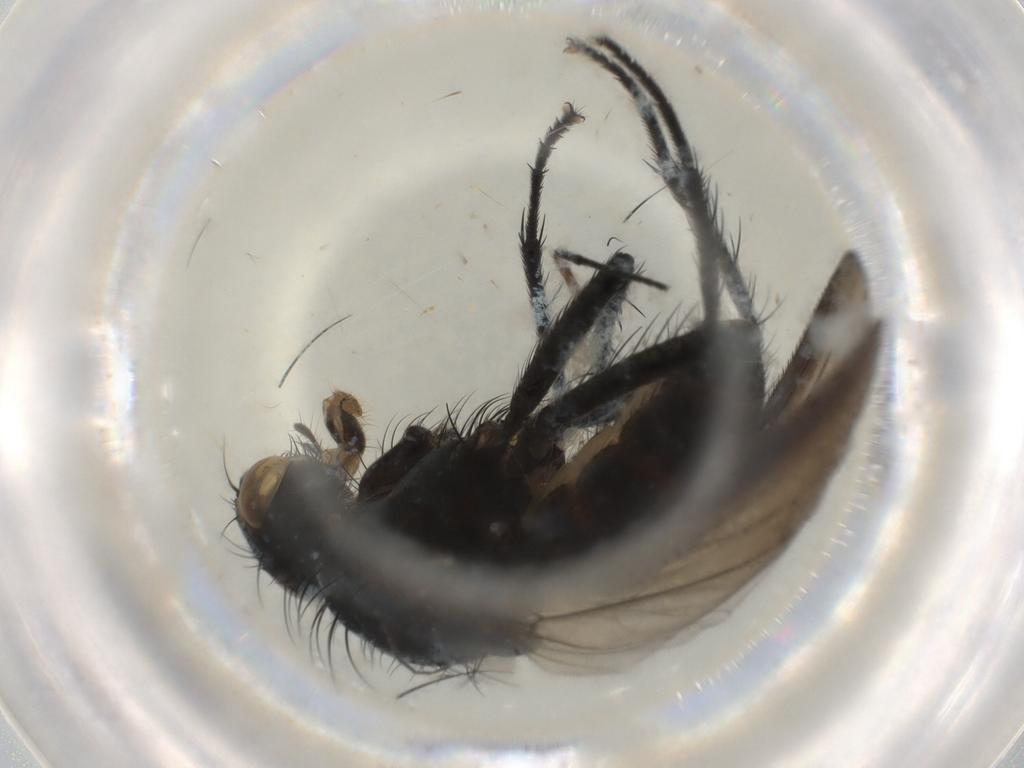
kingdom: Animalia
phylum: Arthropoda
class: Insecta
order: Diptera
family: Anthomyiidae
